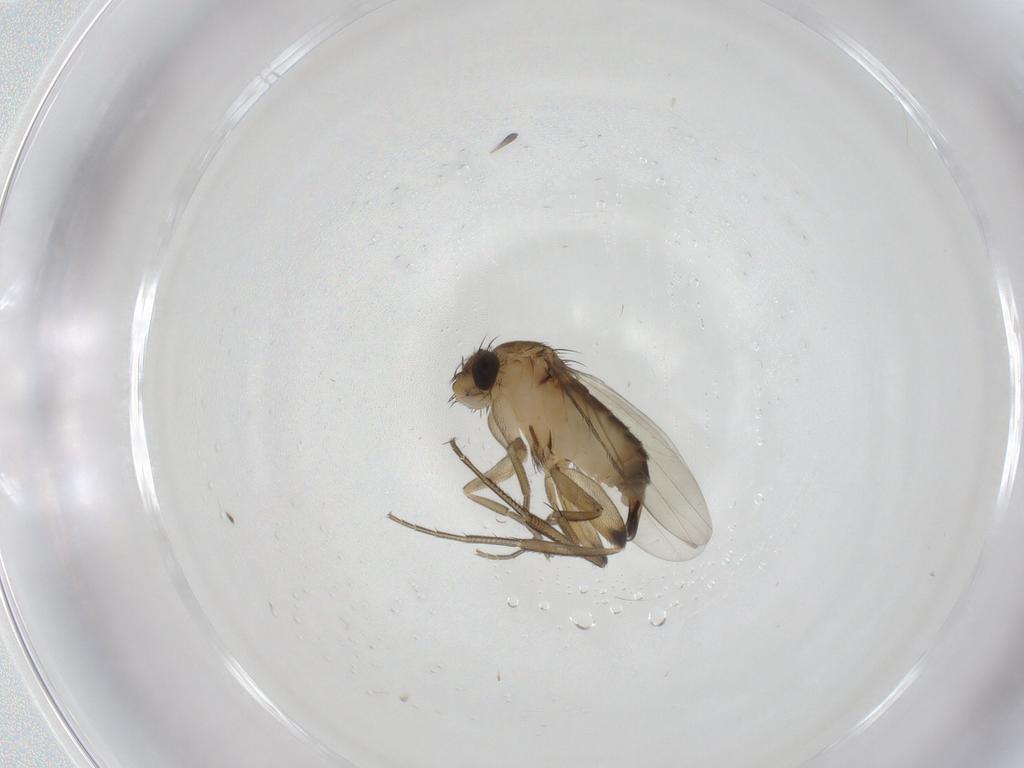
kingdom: Animalia
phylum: Arthropoda
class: Insecta
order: Diptera
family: Phoridae
